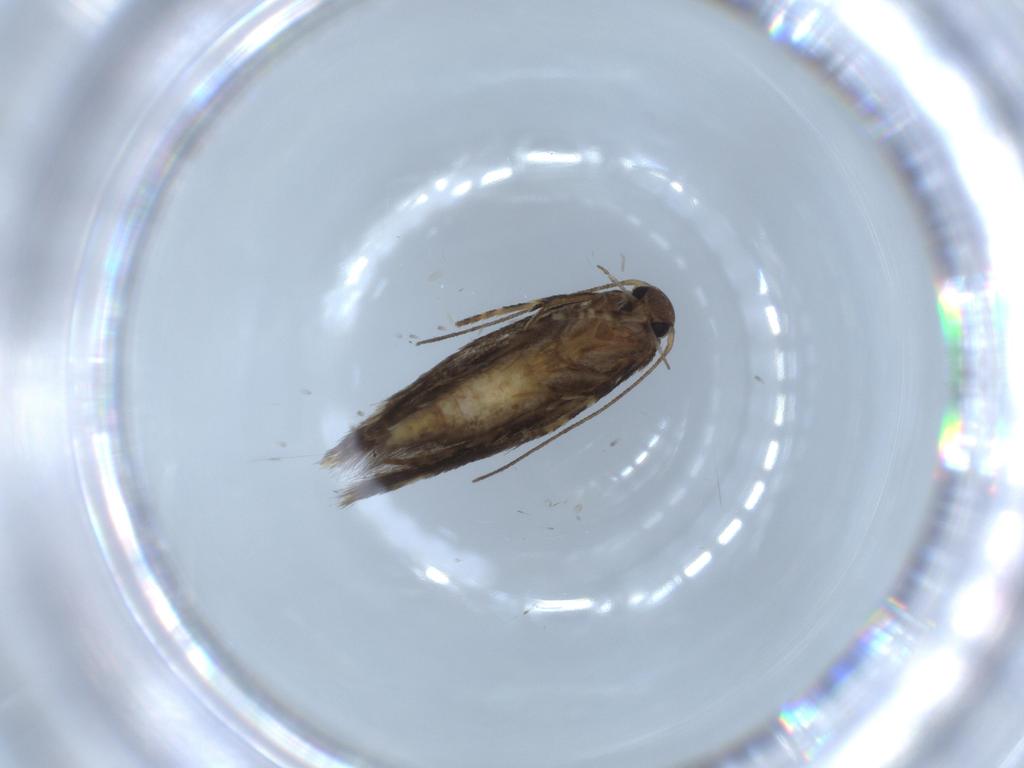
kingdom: Animalia
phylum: Arthropoda
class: Insecta
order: Lepidoptera
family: Elachistidae
